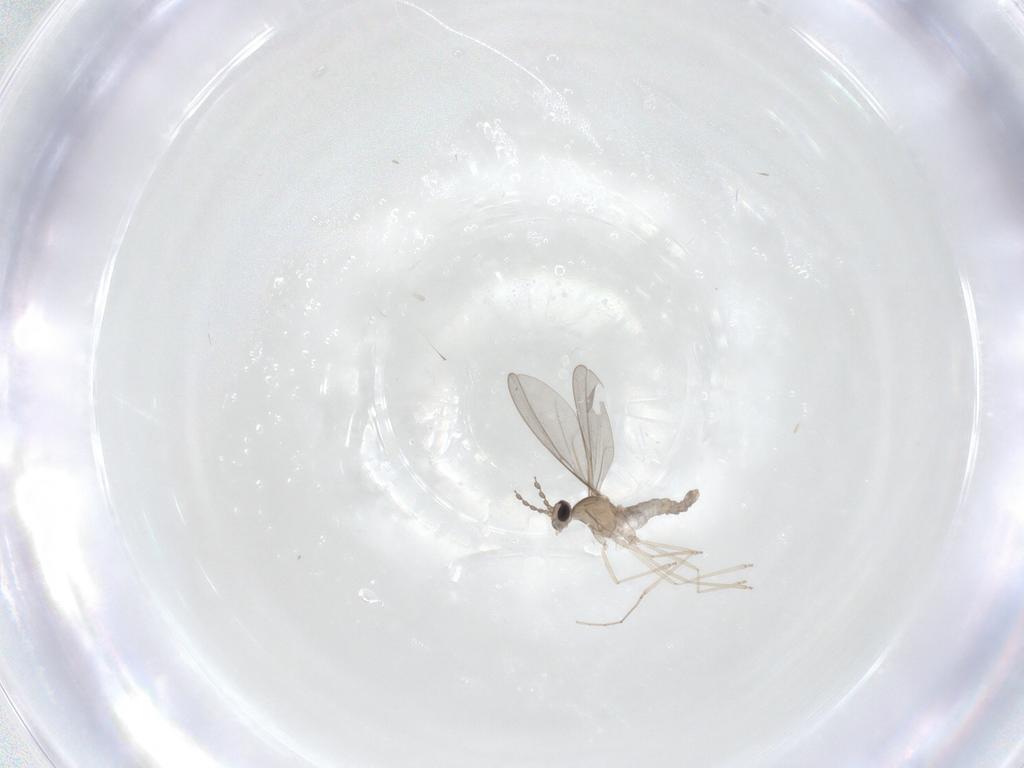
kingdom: Animalia
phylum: Arthropoda
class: Insecta
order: Diptera
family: Cecidomyiidae
